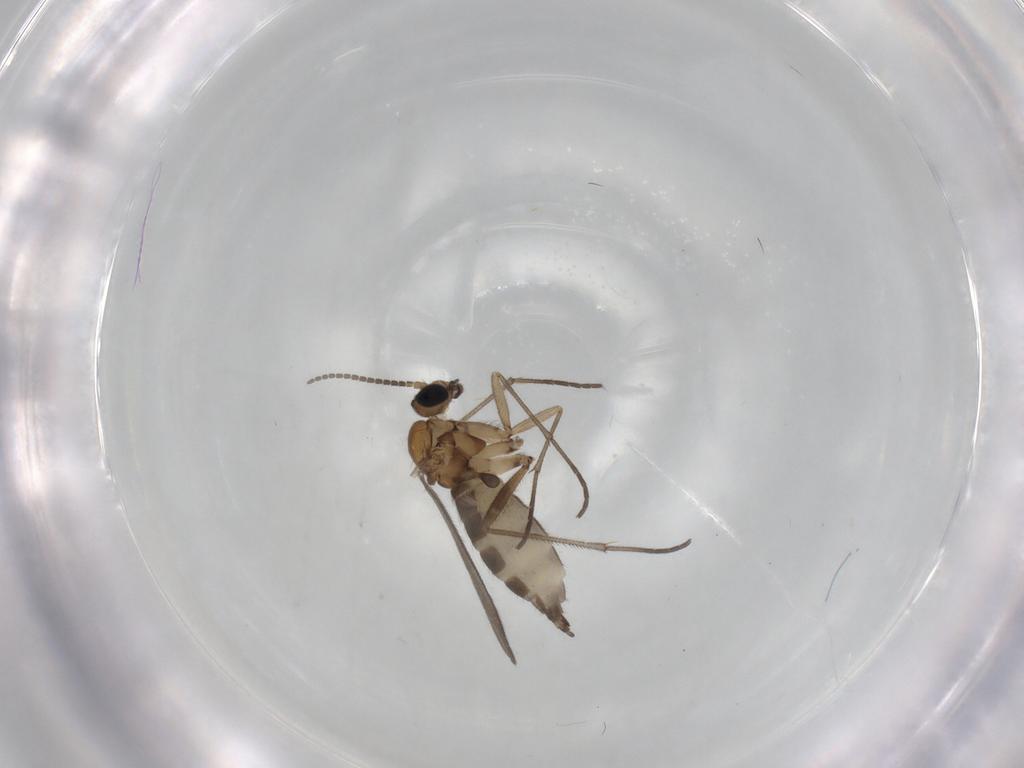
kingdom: Animalia
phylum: Arthropoda
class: Insecta
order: Diptera
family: Sciaridae
